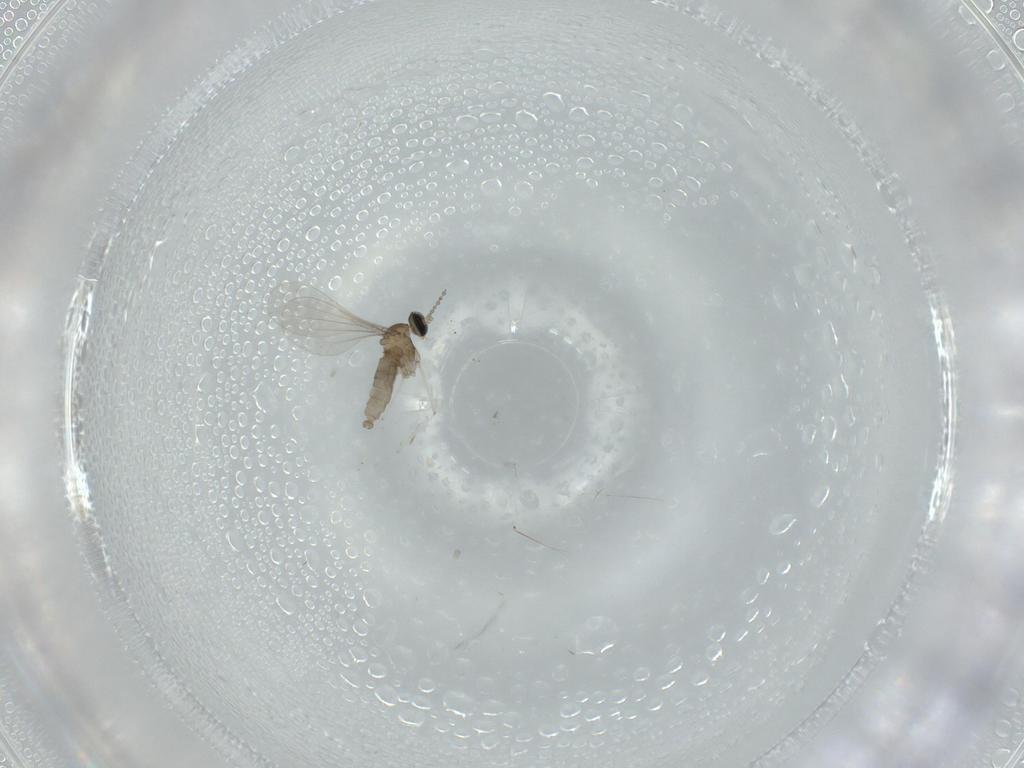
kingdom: Animalia
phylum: Arthropoda
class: Insecta
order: Diptera
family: Cecidomyiidae
